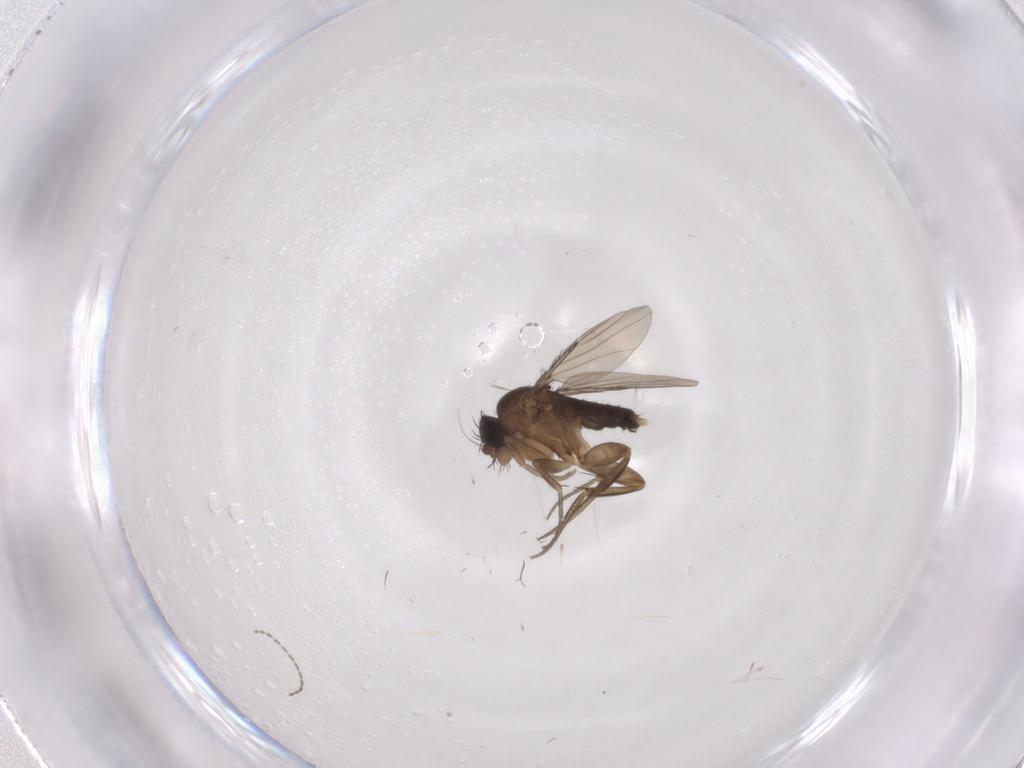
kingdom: Animalia
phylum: Arthropoda
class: Insecta
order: Diptera
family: Phoridae
